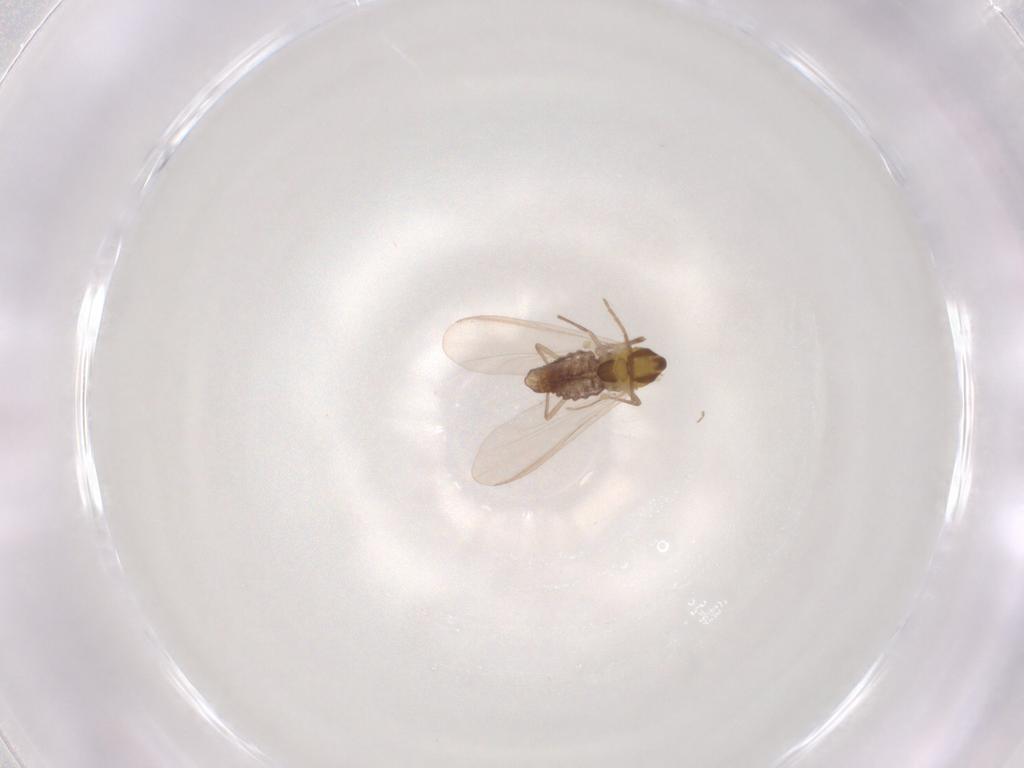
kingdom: Animalia
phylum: Arthropoda
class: Insecta
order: Diptera
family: Chironomidae
